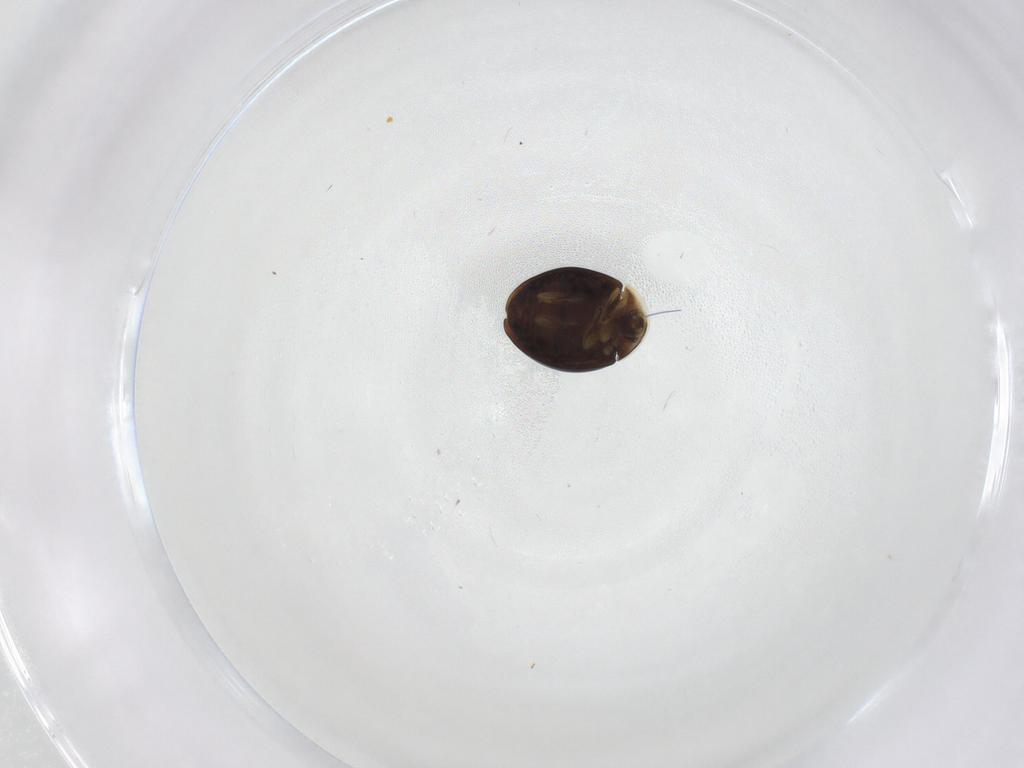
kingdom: Animalia
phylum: Arthropoda
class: Insecta
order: Coleoptera
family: Corylophidae
